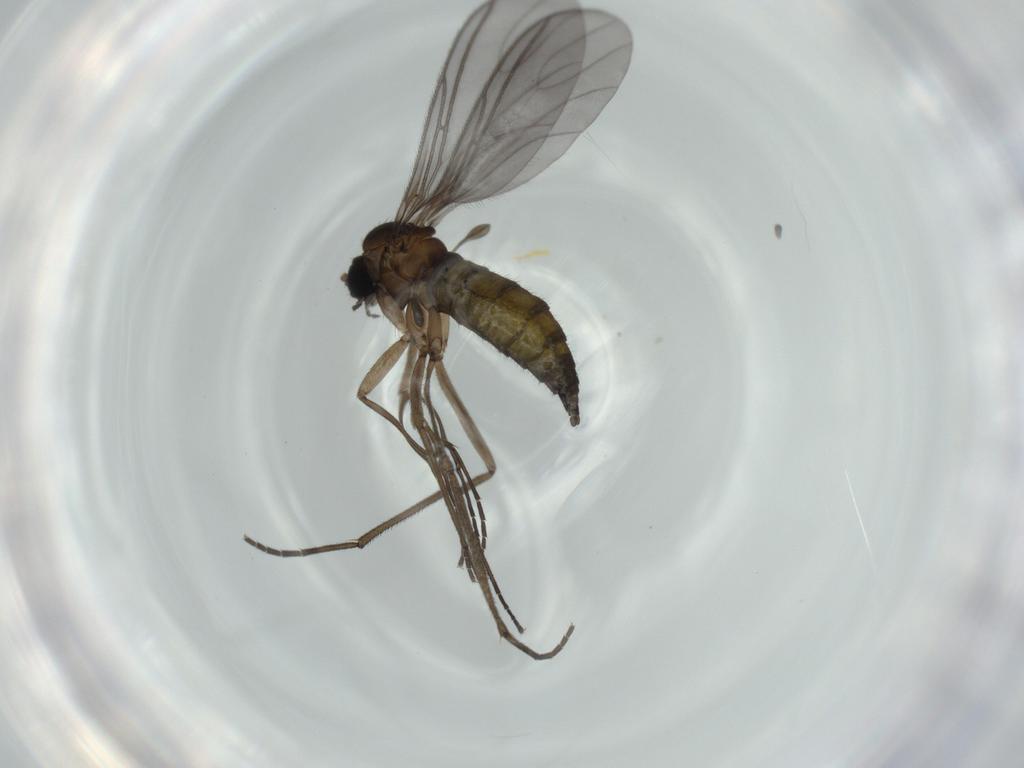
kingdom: Animalia
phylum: Arthropoda
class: Insecta
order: Diptera
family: Sciaridae
